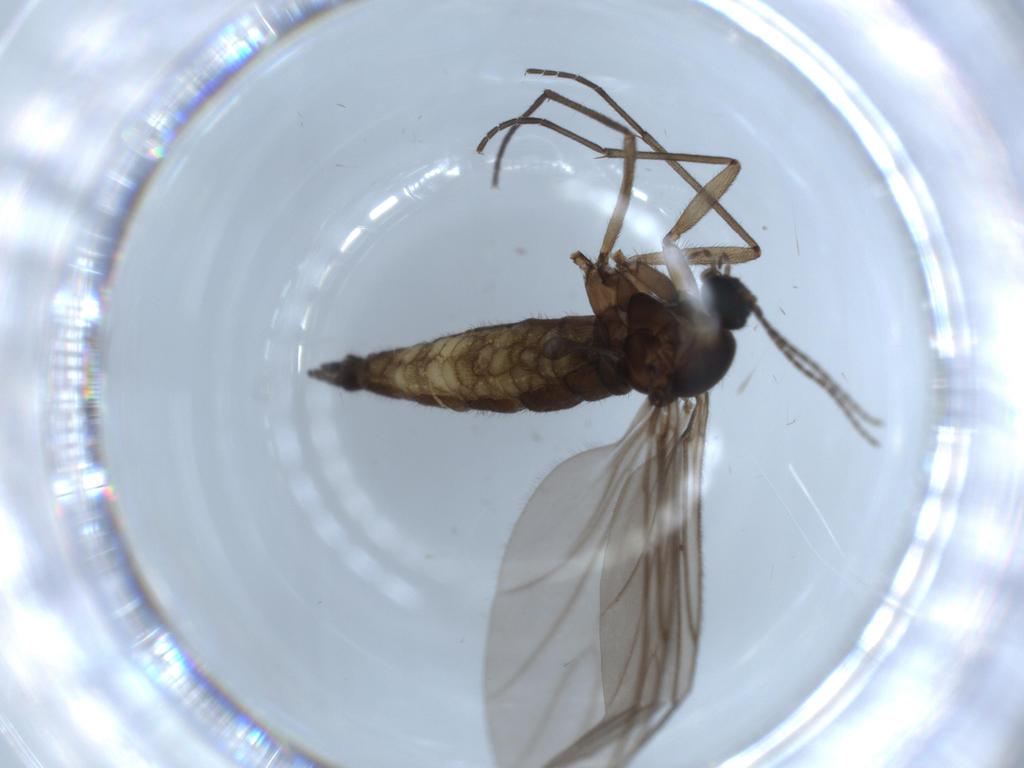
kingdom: Animalia
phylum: Arthropoda
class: Insecta
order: Diptera
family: Sciaridae
